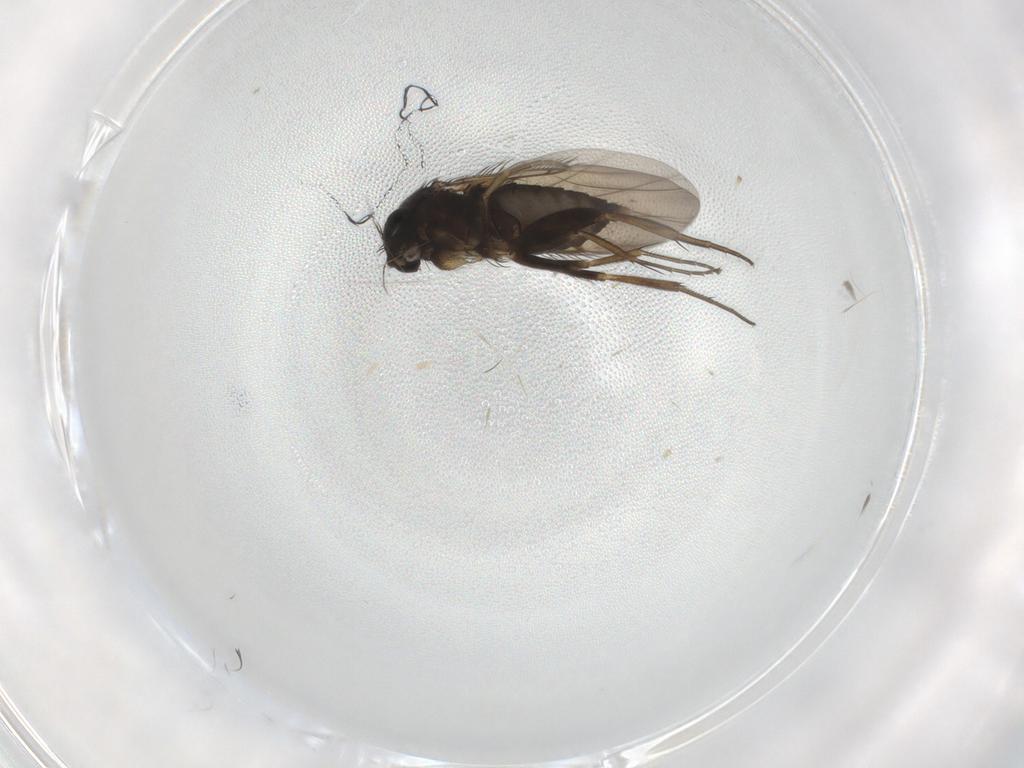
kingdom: Animalia
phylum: Arthropoda
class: Insecta
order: Diptera
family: Phoridae
